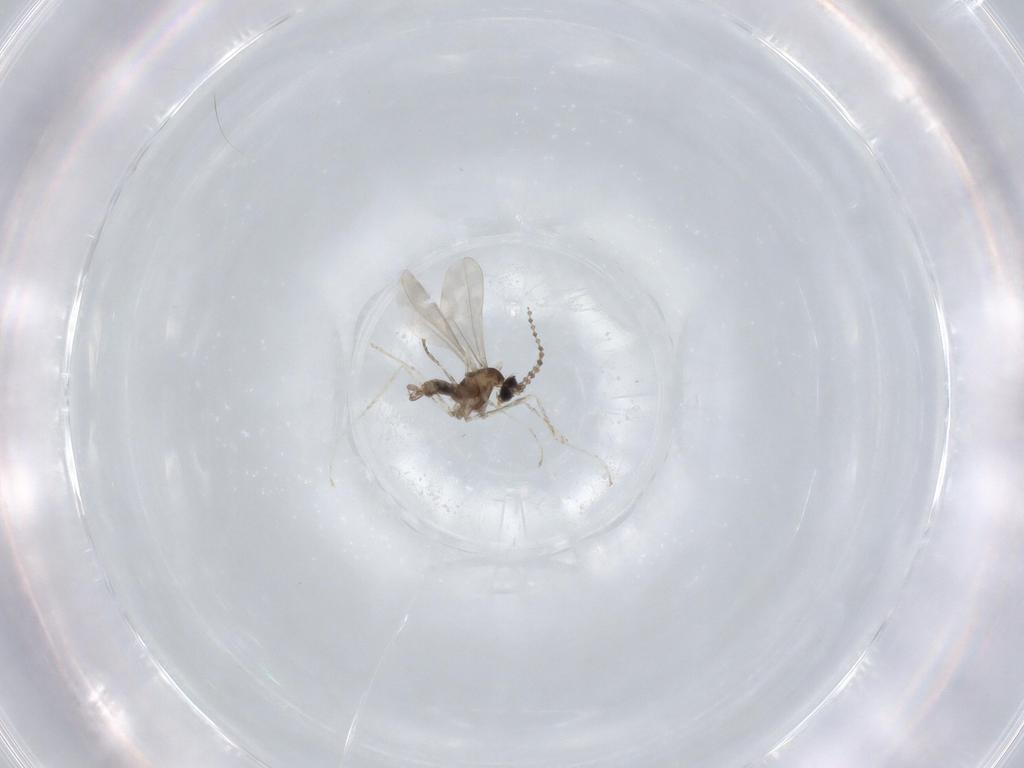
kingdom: Animalia
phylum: Arthropoda
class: Insecta
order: Diptera
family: Cecidomyiidae
